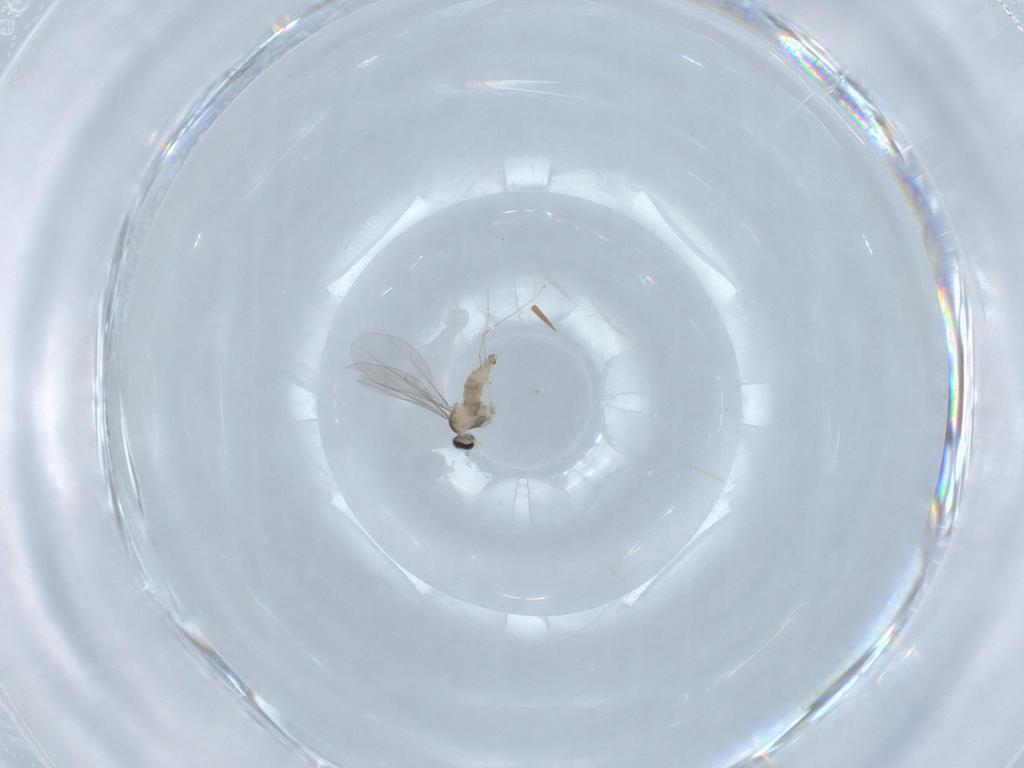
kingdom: Animalia
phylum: Arthropoda
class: Insecta
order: Diptera
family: Cecidomyiidae
